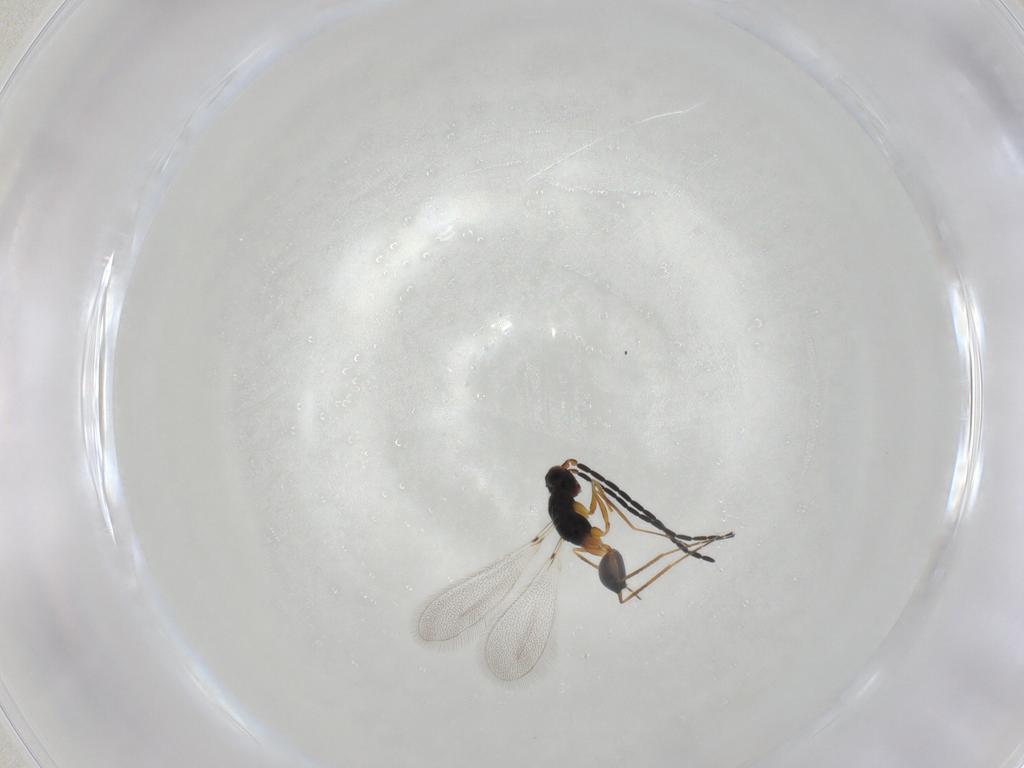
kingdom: Animalia
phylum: Arthropoda
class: Insecta
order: Hymenoptera
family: Mymaridae
